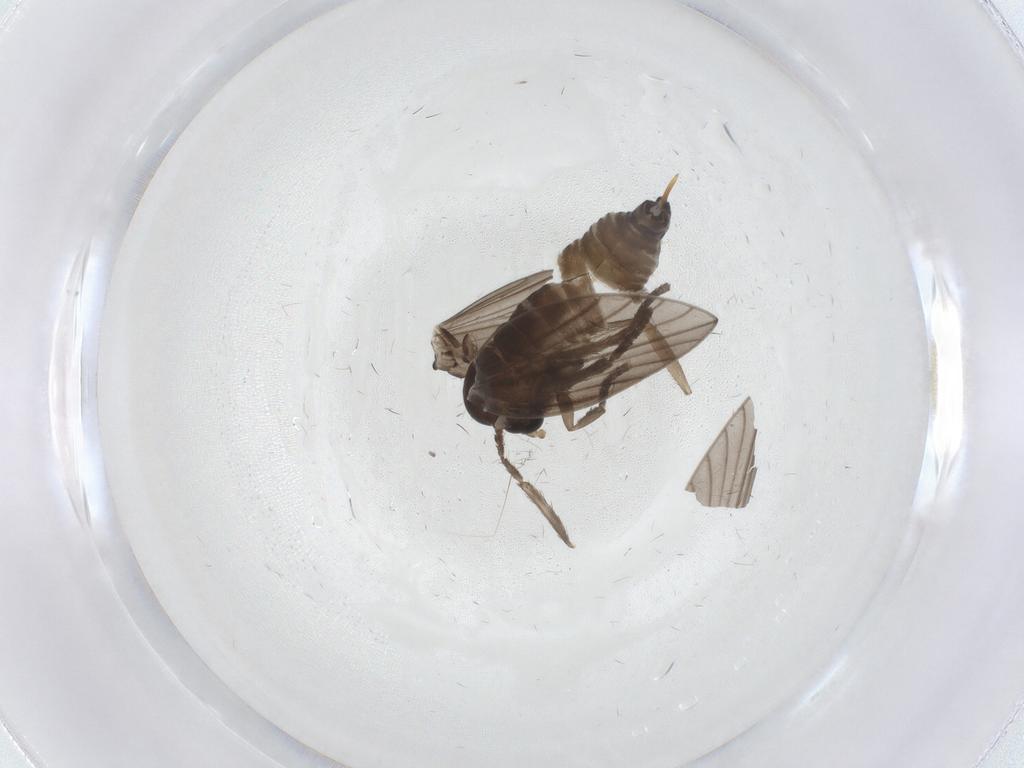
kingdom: Animalia
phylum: Arthropoda
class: Insecta
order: Diptera
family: Psychodidae
